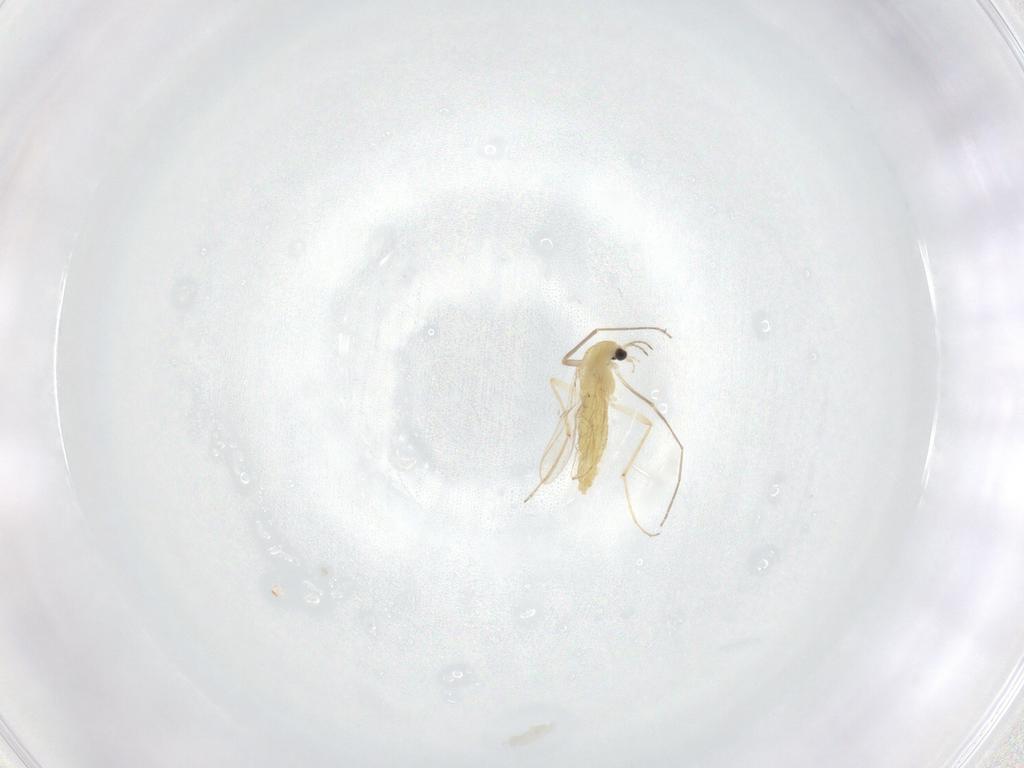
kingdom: Animalia
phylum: Arthropoda
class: Insecta
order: Diptera
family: Chironomidae
